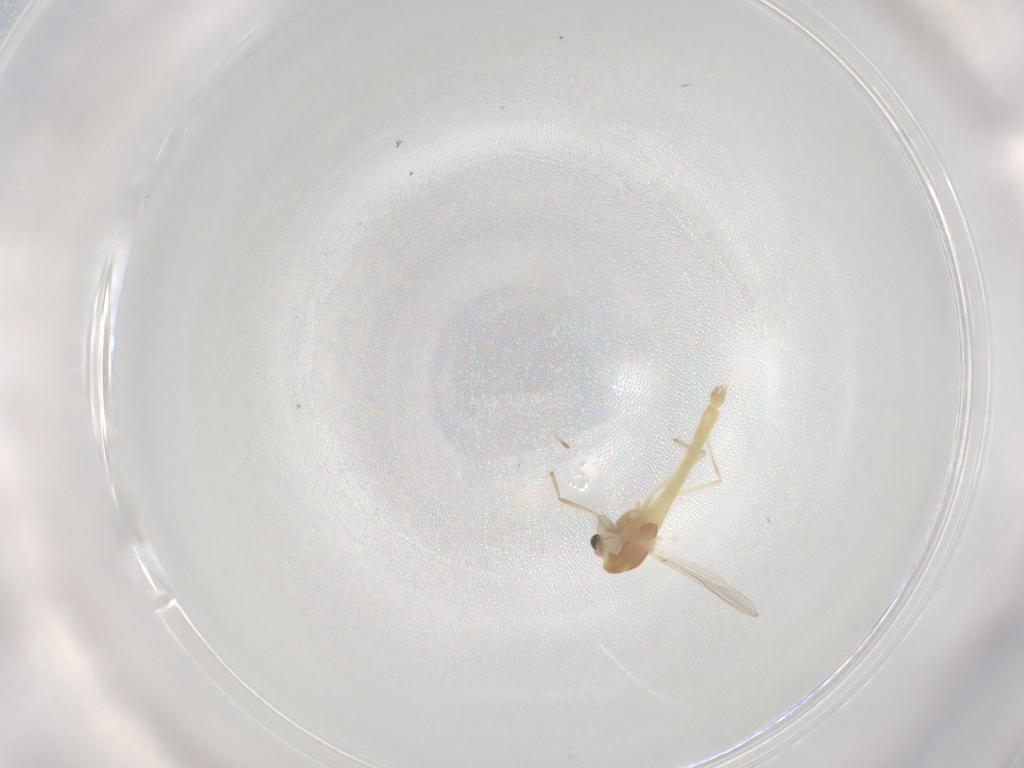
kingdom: Animalia
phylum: Arthropoda
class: Insecta
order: Diptera
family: Chironomidae
